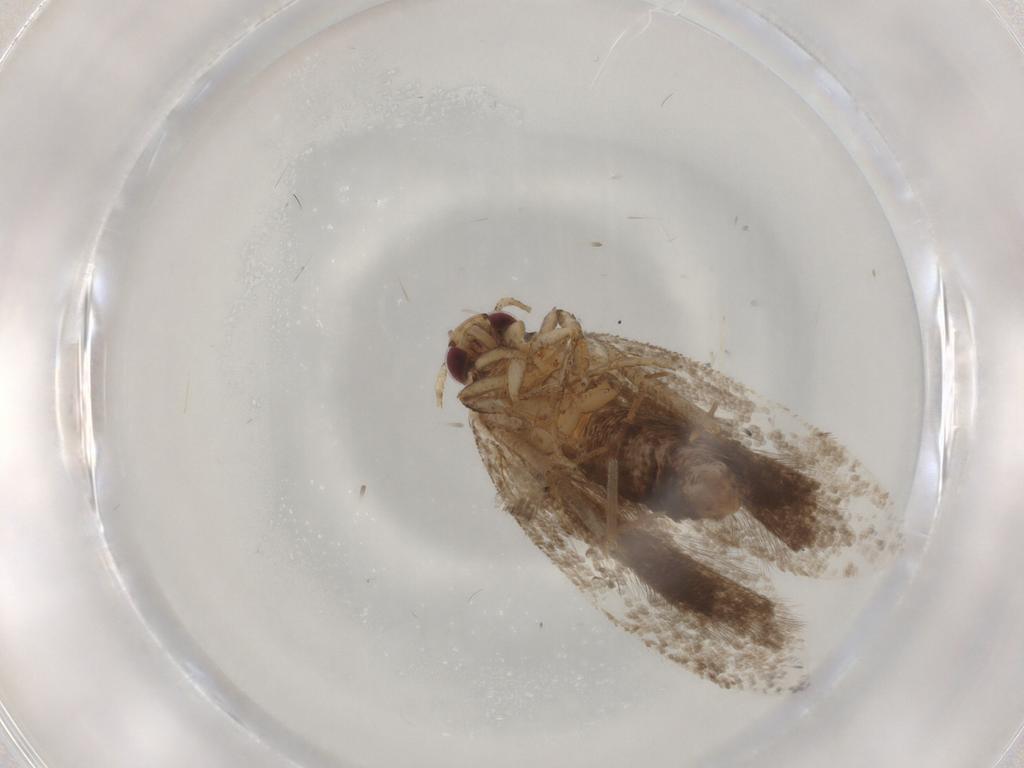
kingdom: Animalia
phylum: Arthropoda
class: Insecta
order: Lepidoptera
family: Gelechiidae
